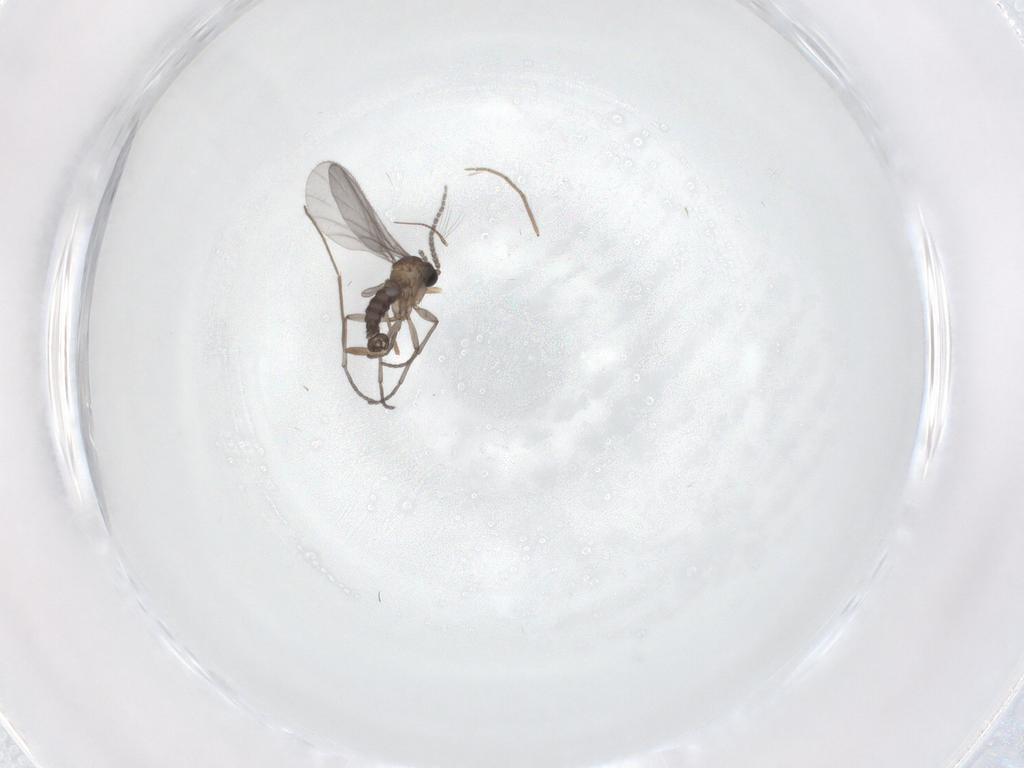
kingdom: Animalia
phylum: Arthropoda
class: Insecta
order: Diptera
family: Sciaridae
